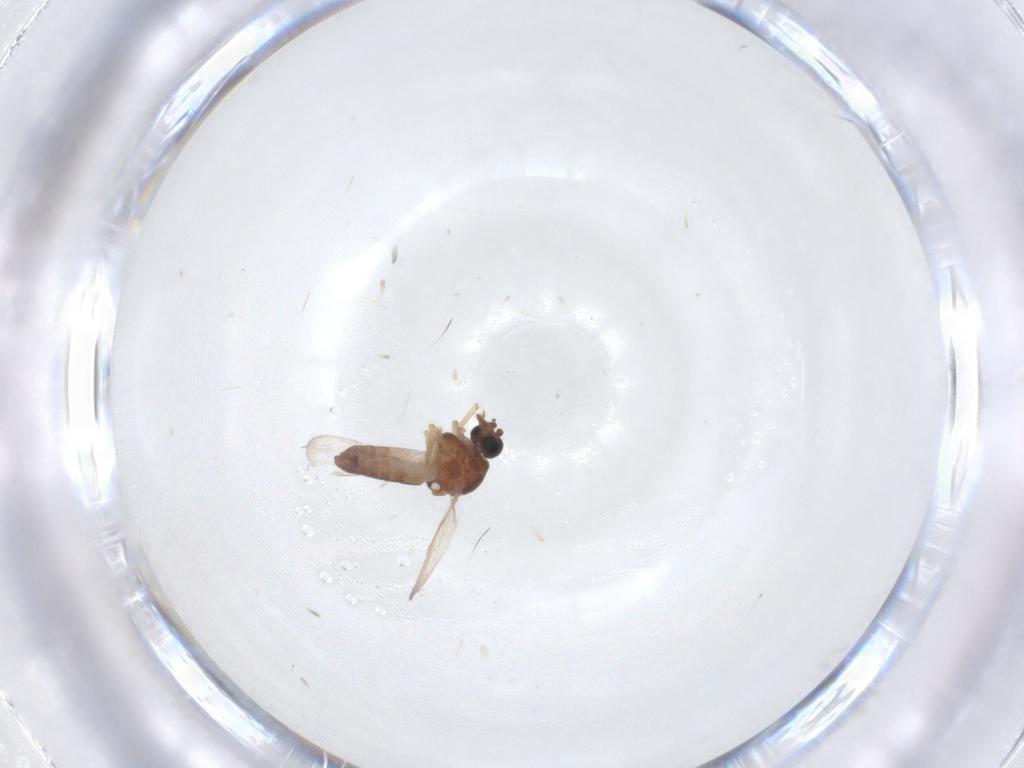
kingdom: Animalia
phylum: Arthropoda
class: Insecta
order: Diptera
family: Ceratopogonidae
